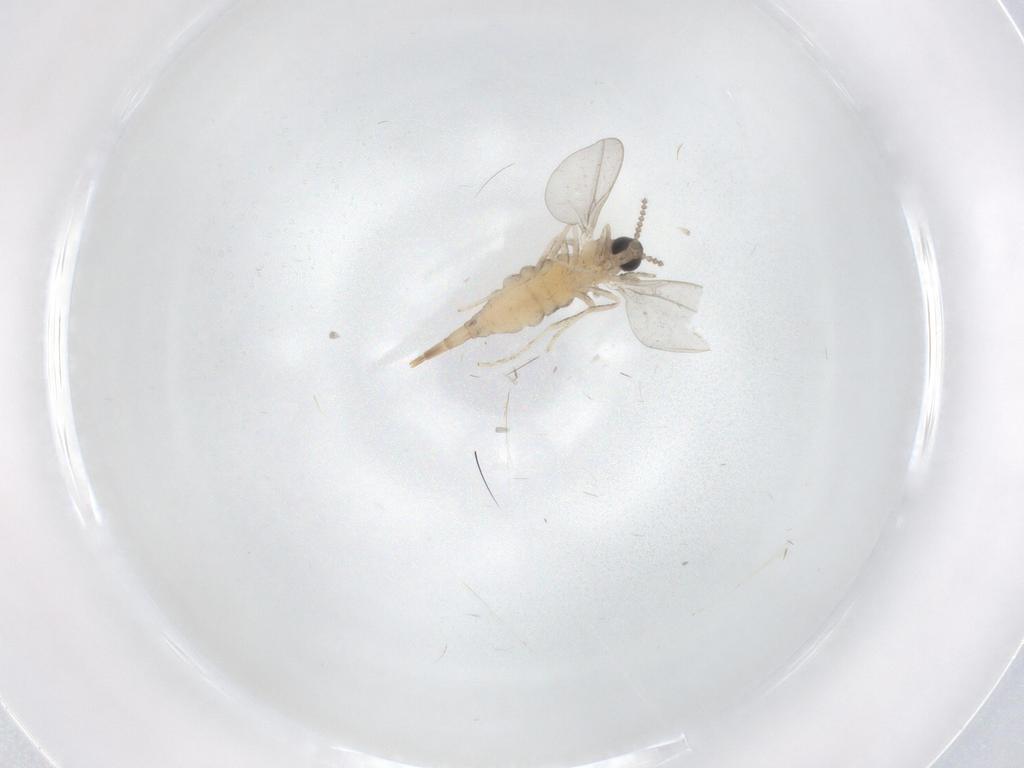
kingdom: Animalia
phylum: Arthropoda
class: Insecta
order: Diptera
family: Cecidomyiidae
